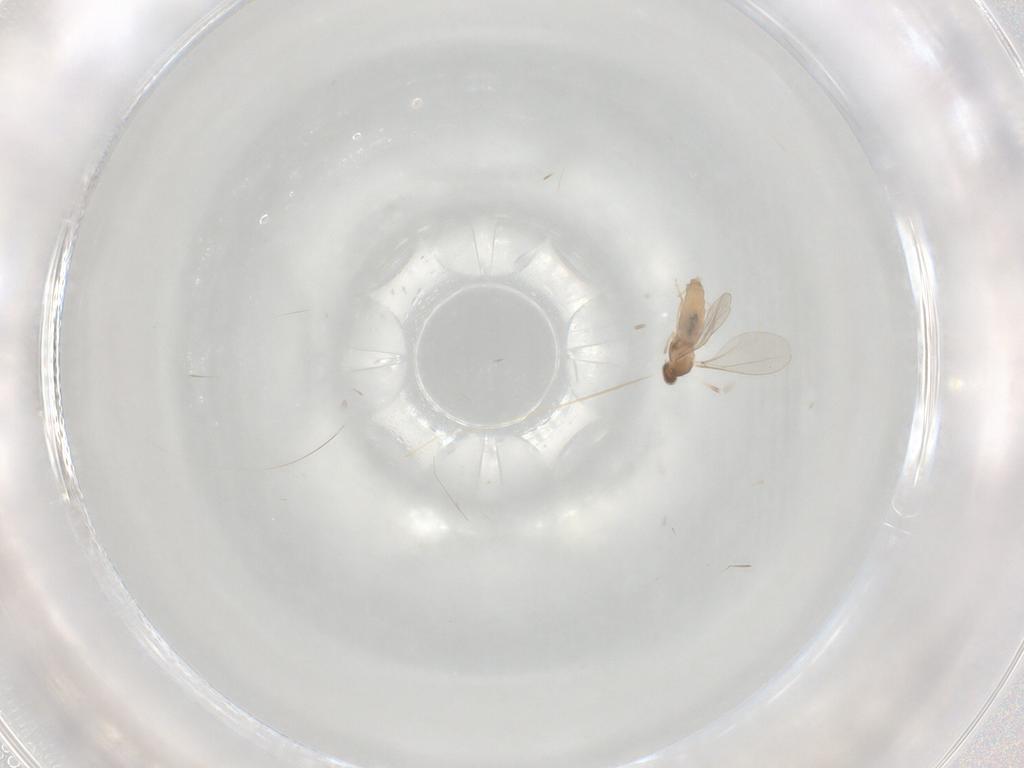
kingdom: Animalia
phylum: Arthropoda
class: Insecta
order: Diptera
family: Cecidomyiidae
